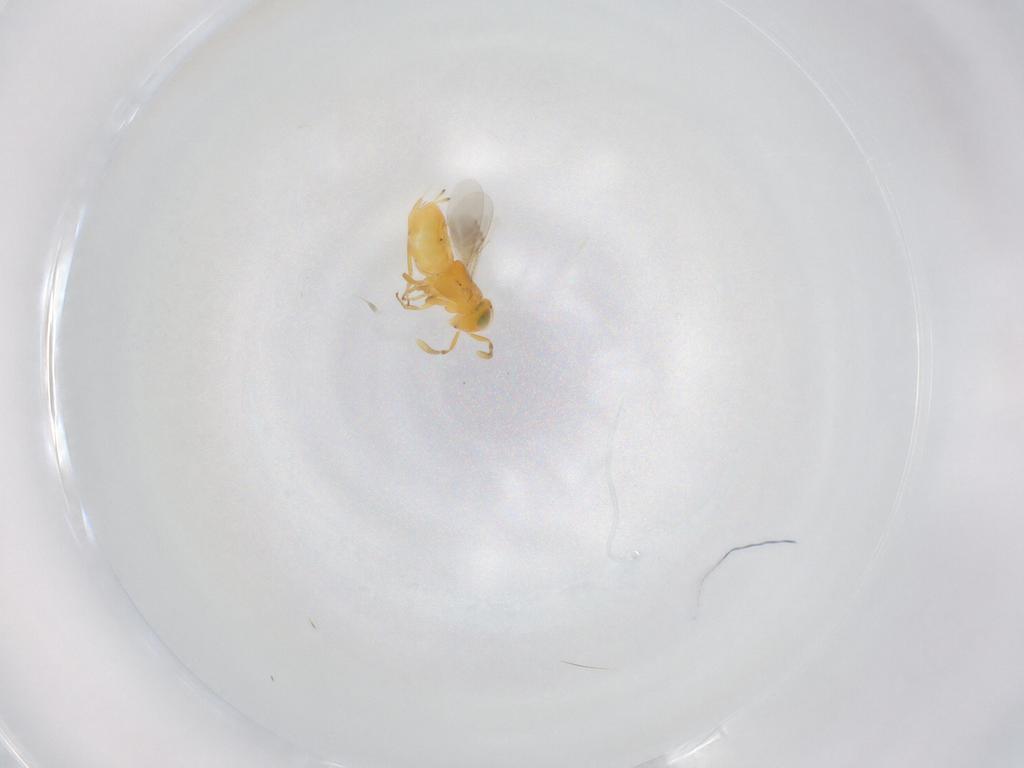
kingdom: Animalia
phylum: Arthropoda
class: Insecta
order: Hymenoptera
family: Encyrtidae
